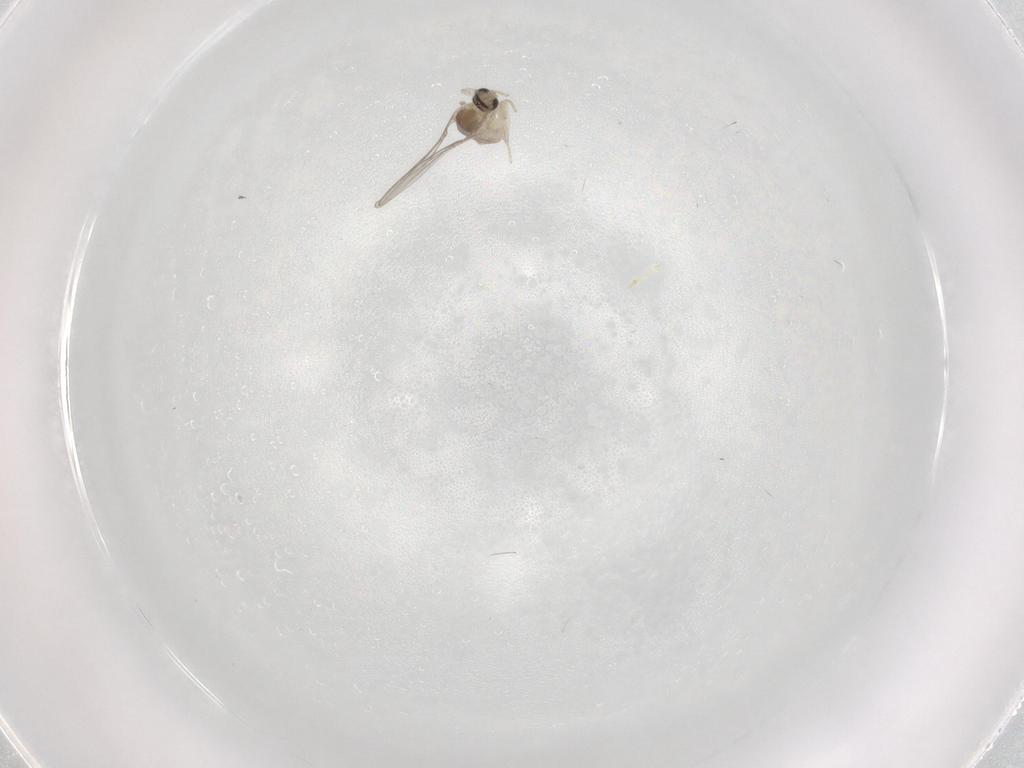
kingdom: Animalia
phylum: Arthropoda
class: Insecta
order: Diptera
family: Cecidomyiidae
